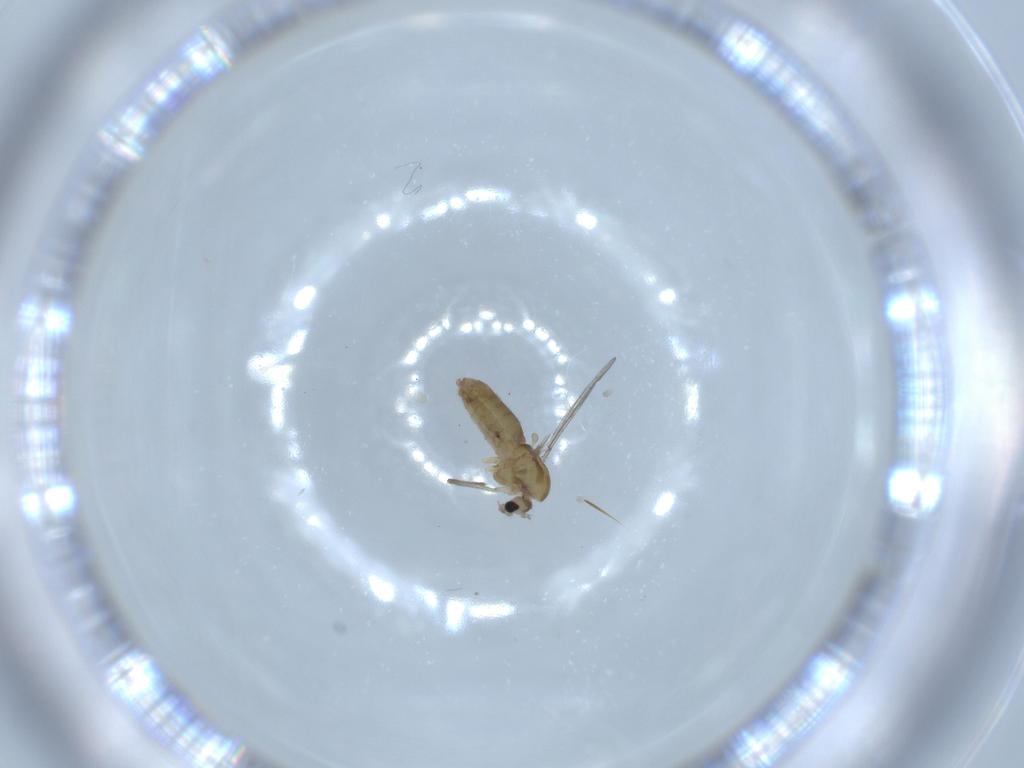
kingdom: Animalia
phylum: Arthropoda
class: Insecta
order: Diptera
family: Chironomidae
